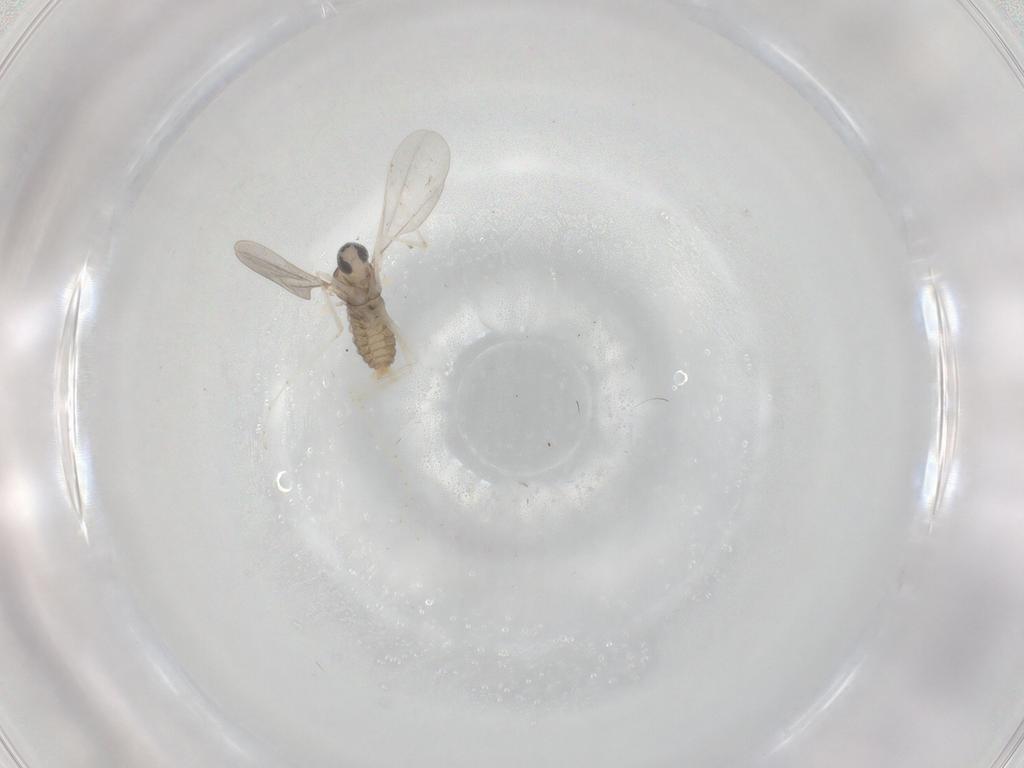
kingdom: Animalia
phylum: Arthropoda
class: Insecta
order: Diptera
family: Cecidomyiidae
